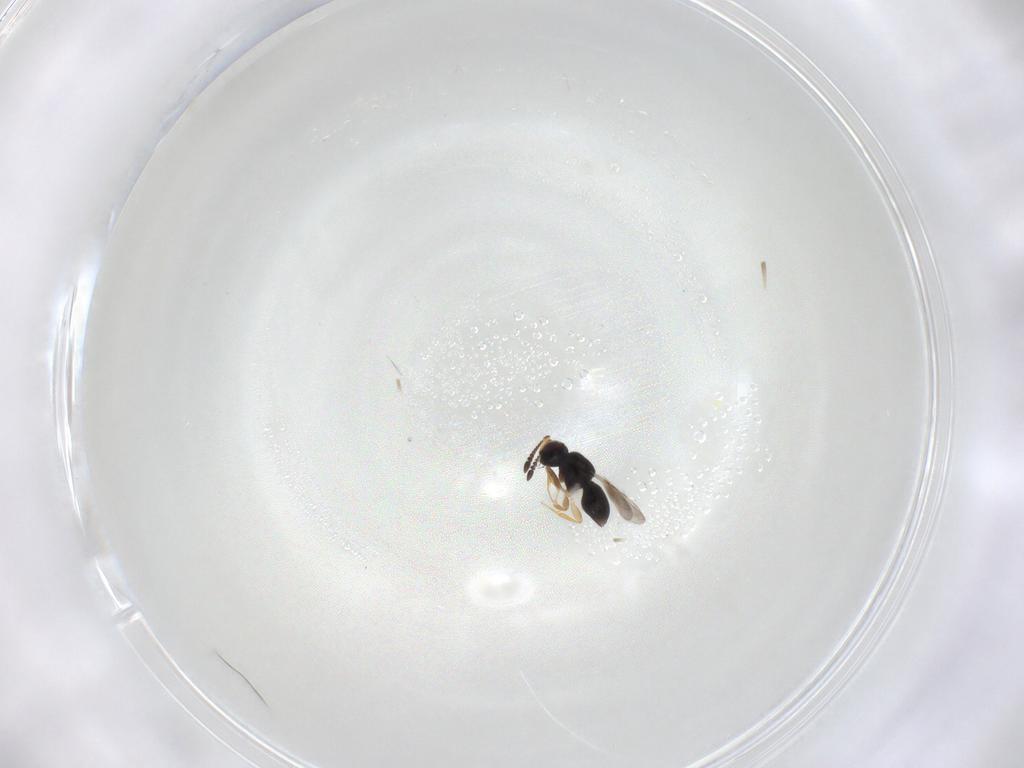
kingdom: Animalia
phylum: Arthropoda
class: Insecta
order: Hymenoptera
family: Ceraphronidae
